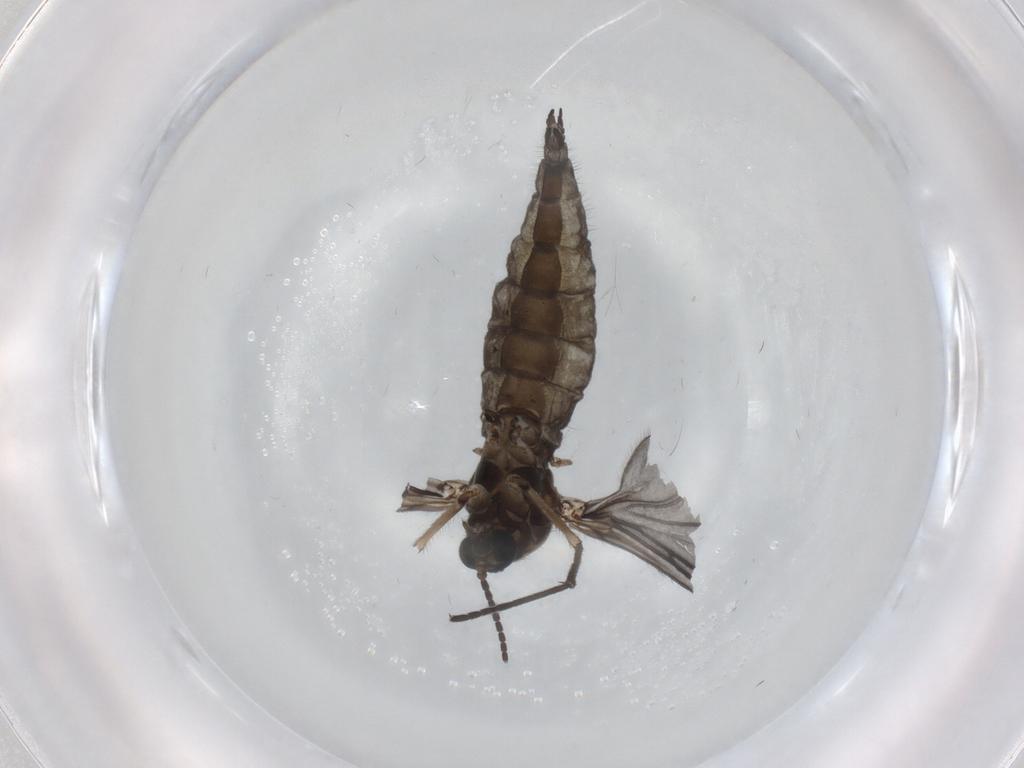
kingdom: Animalia
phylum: Arthropoda
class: Insecta
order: Diptera
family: Sciaridae
